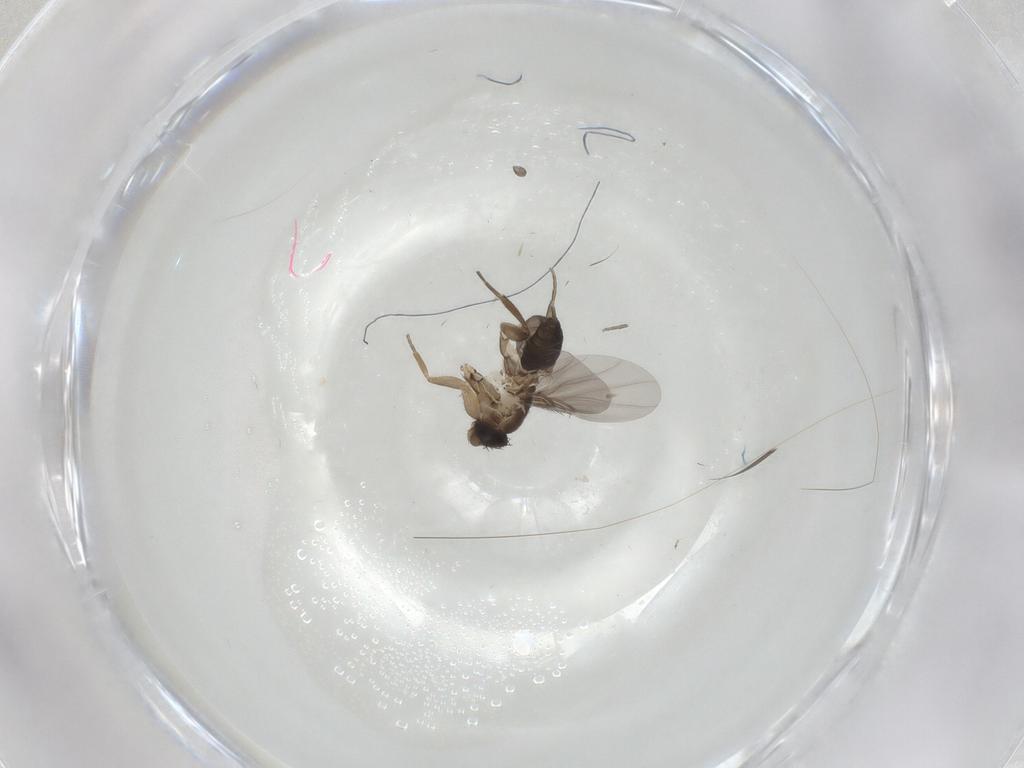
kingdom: Animalia
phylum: Arthropoda
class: Insecta
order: Diptera
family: Phoridae
